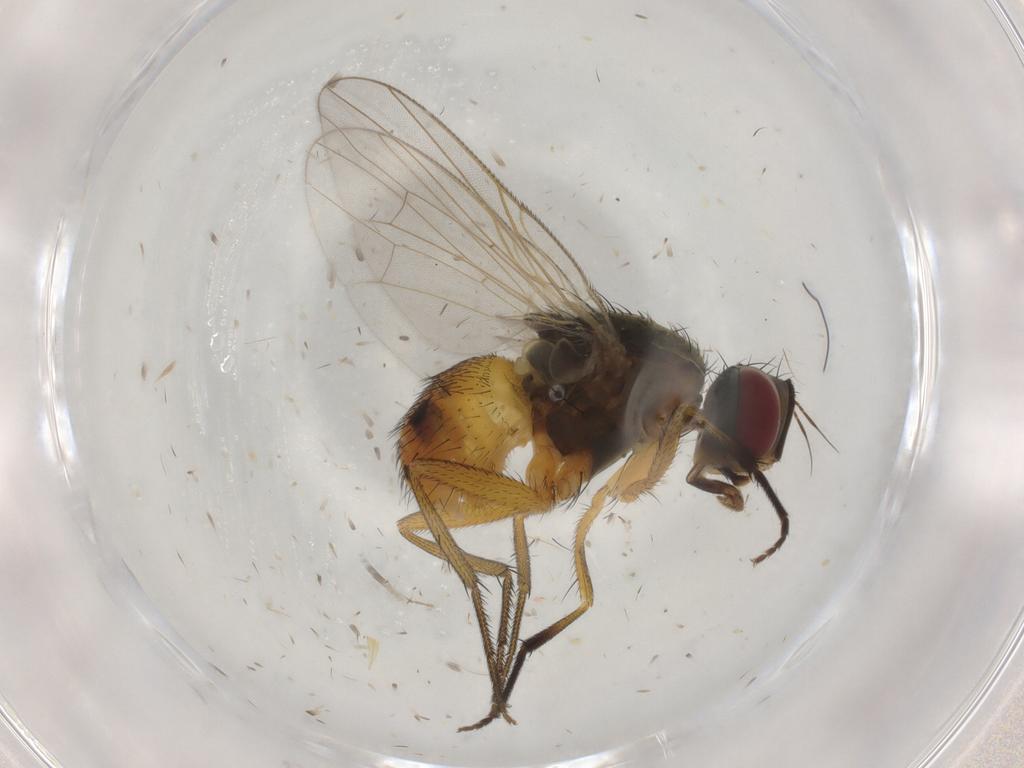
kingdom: Animalia
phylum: Arthropoda
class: Insecta
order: Diptera
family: Muscidae
